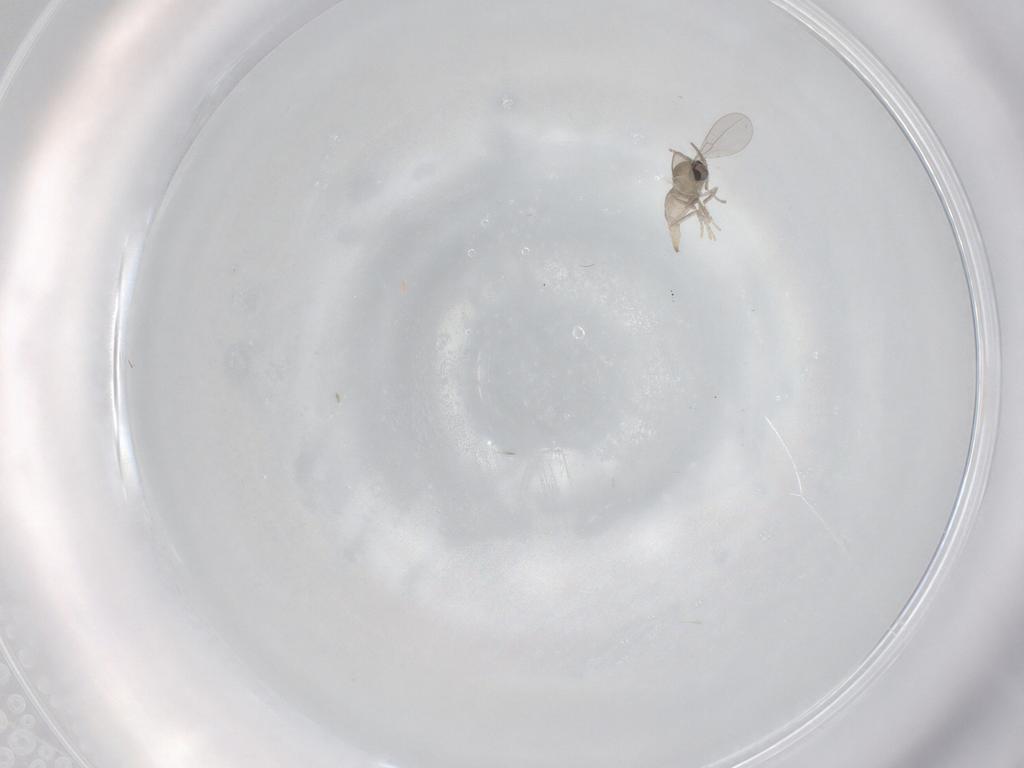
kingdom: Animalia
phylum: Arthropoda
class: Insecta
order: Diptera
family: Cecidomyiidae
